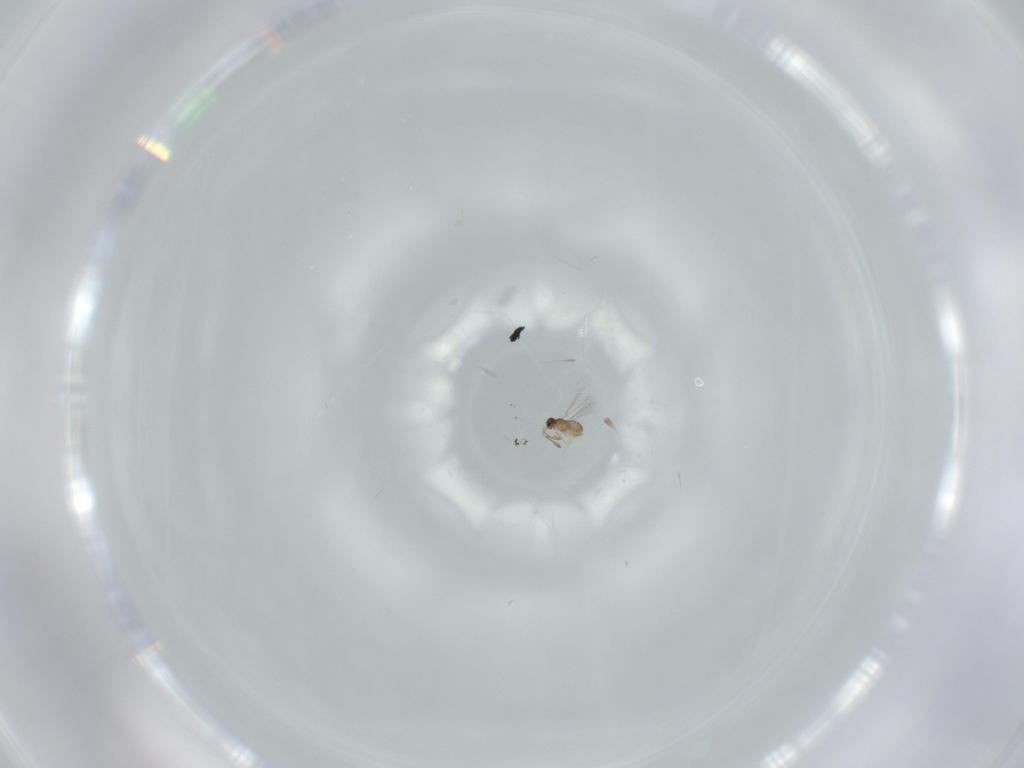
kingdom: Animalia
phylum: Arthropoda
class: Insecta
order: Hymenoptera
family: Mymaridae
